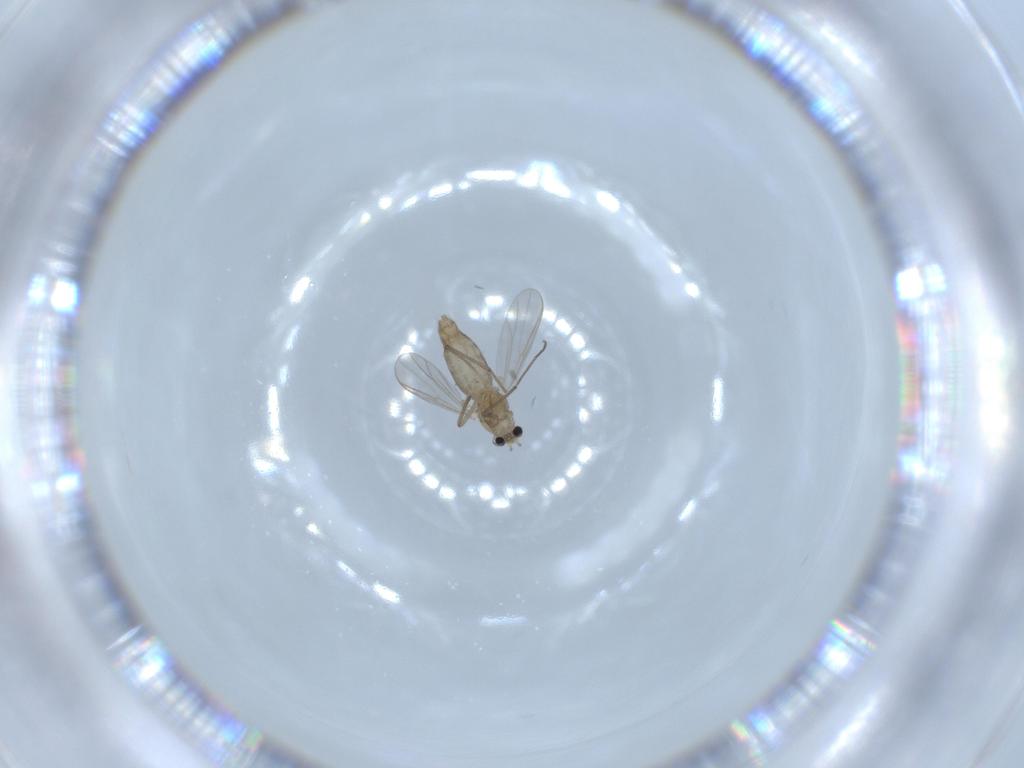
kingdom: Animalia
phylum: Arthropoda
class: Insecta
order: Diptera
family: Chironomidae
